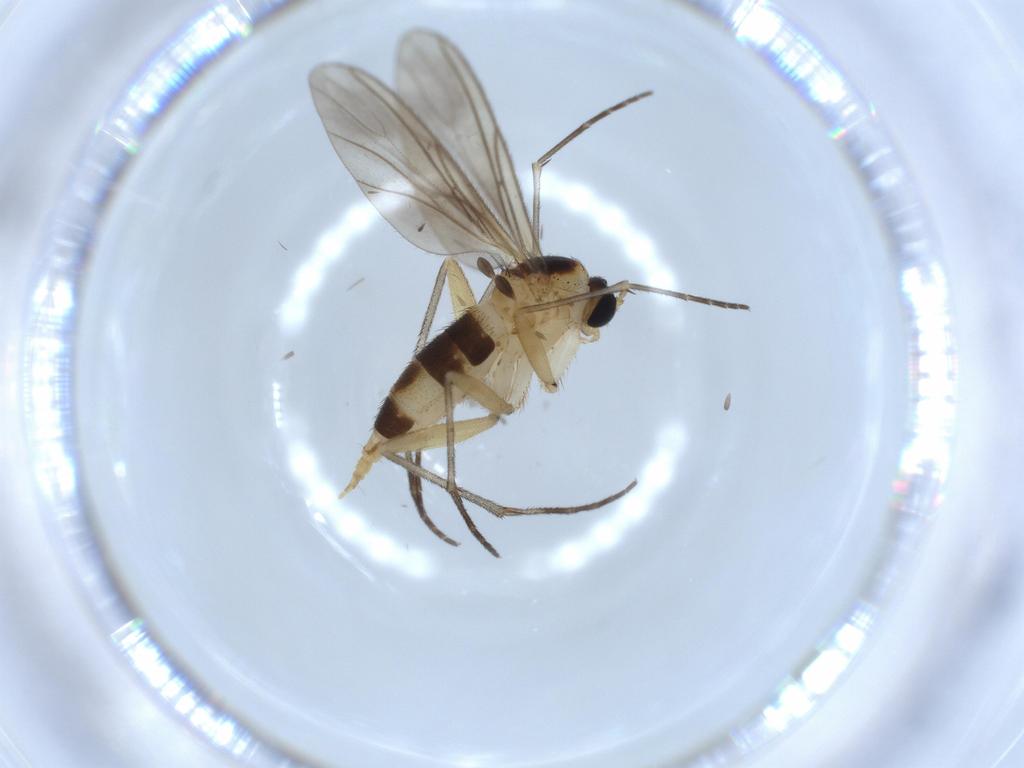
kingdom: Animalia
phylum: Arthropoda
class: Insecta
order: Diptera
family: Sciaridae
